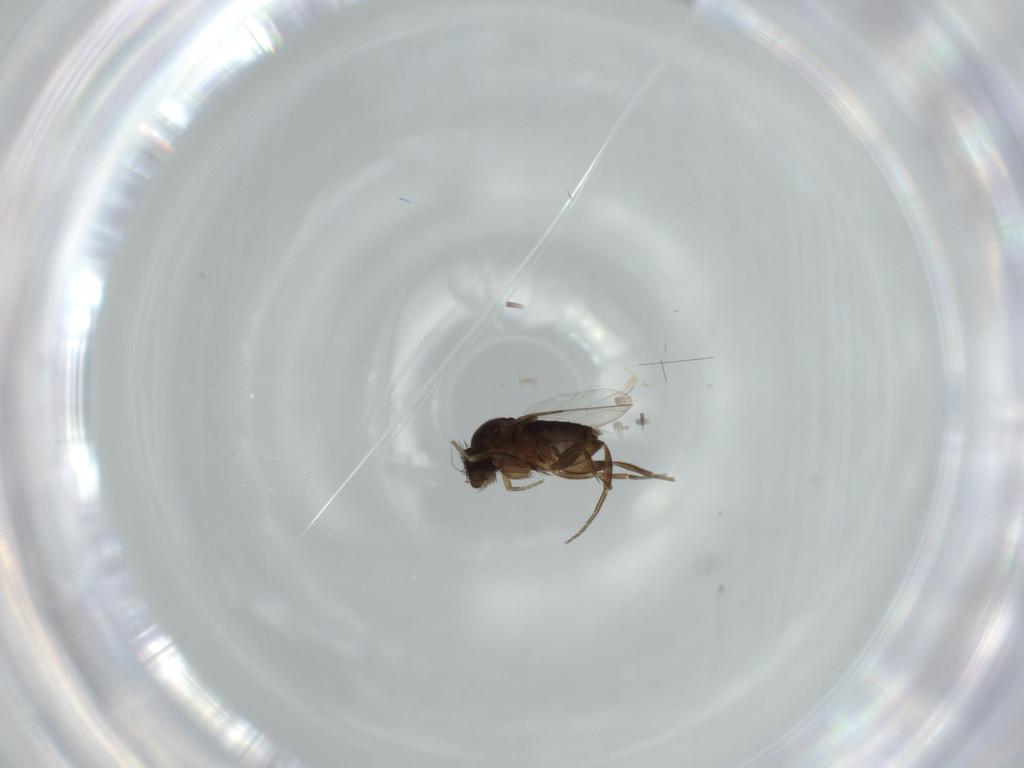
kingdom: Animalia
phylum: Arthropoda
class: Insecta
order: Diptera
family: Phoridae
